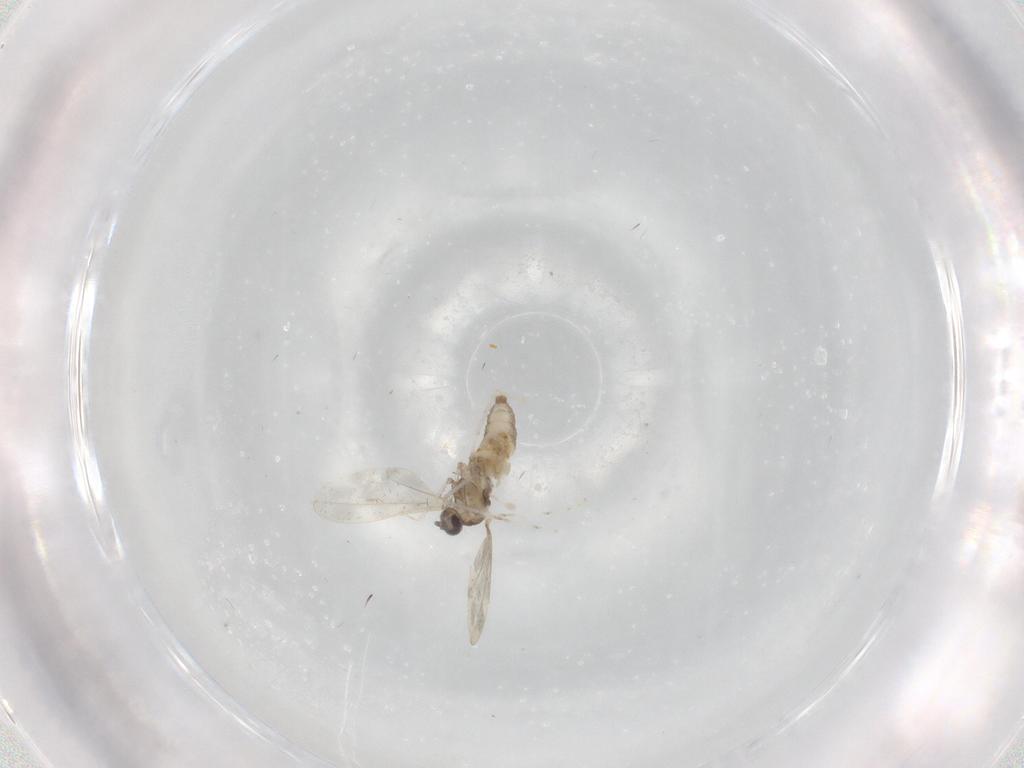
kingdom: Animalia
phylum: Arthropoda
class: Insecta
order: Diptera
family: Cecidomyiidae
